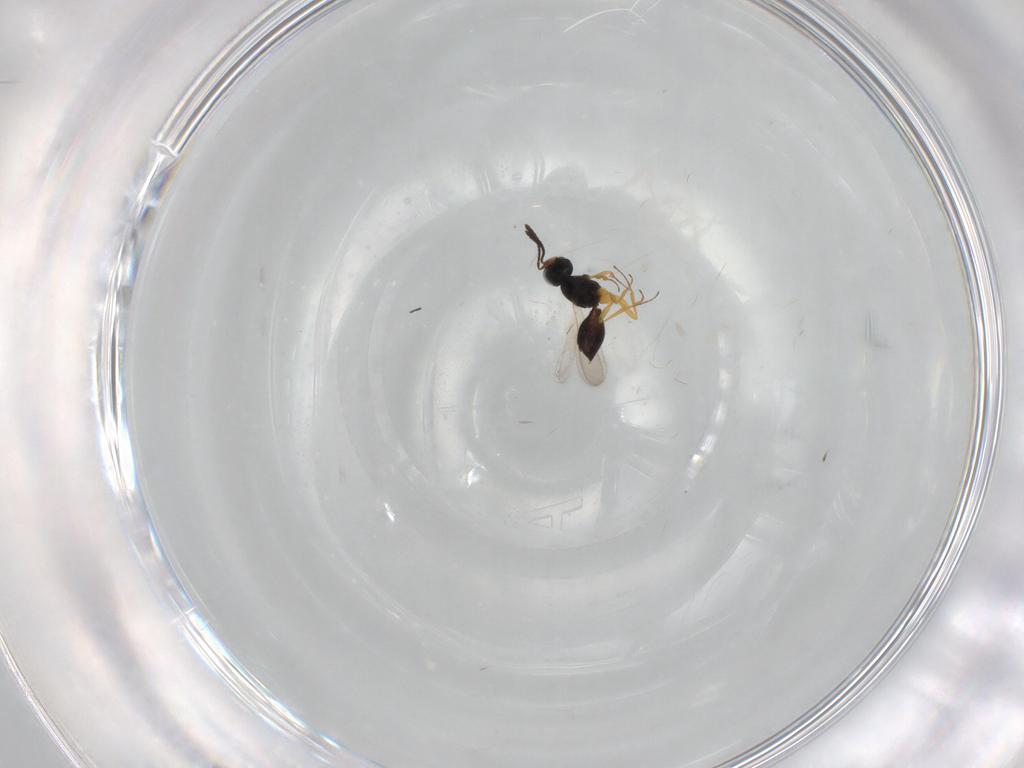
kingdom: Animalia
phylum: Arthropoda
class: Insecta
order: Hymenoptera
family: Scelionidae
